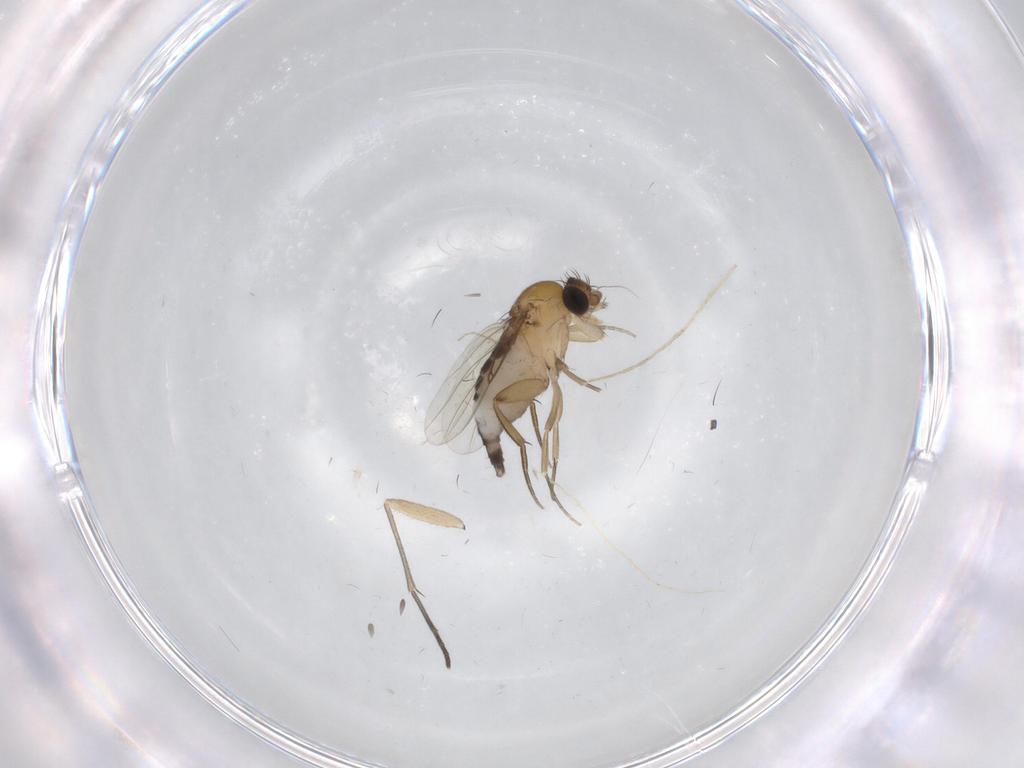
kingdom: Animalia
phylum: Arthropoda
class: Insecta
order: Diptera
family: Phoridae
